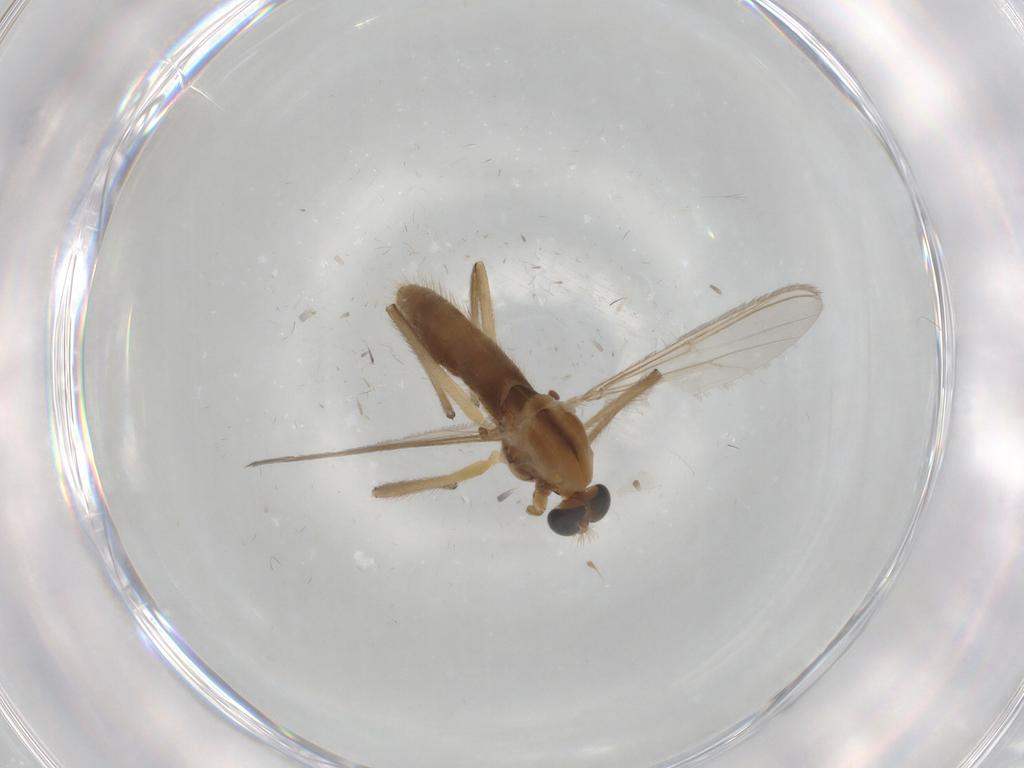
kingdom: Animalia
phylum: Arthropoda
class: Insecta
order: Diptera
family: Chironomidae
